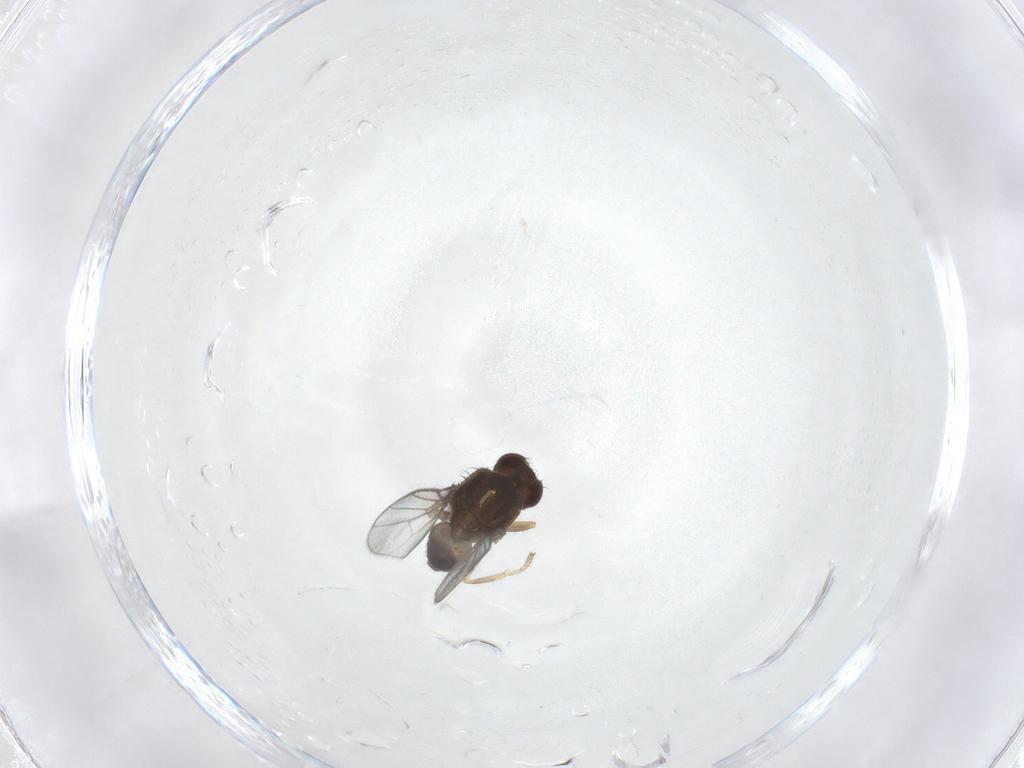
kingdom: Animalia
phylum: Arthropoda
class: Insecta
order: Diptera
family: Chloropidae
